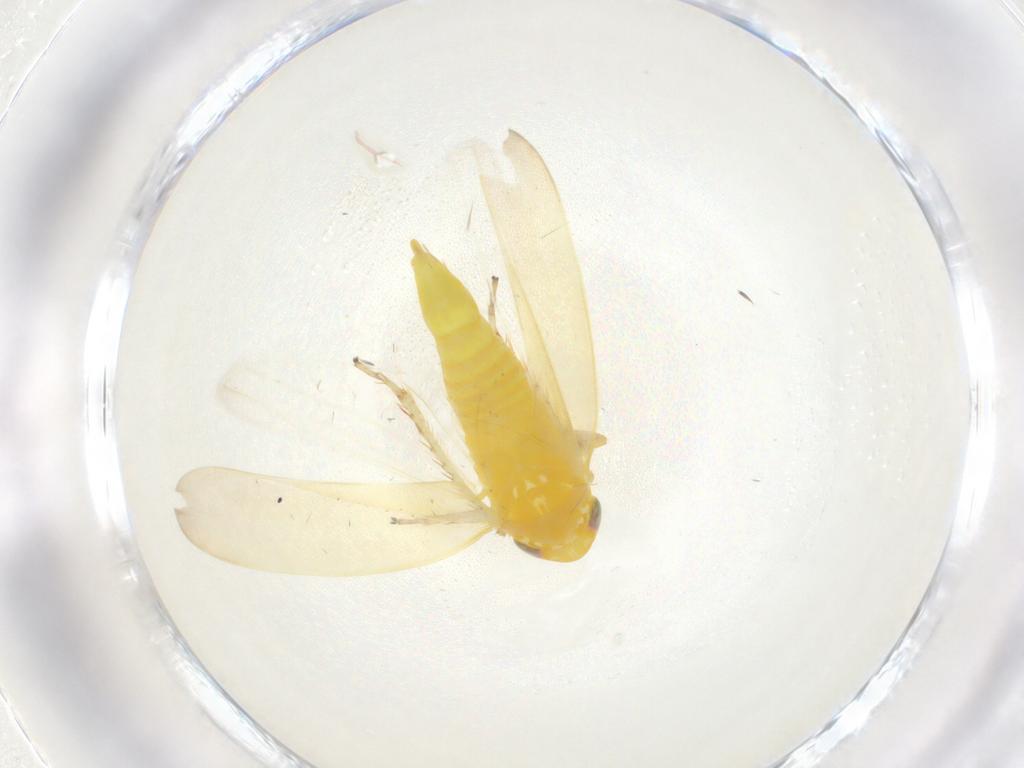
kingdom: Animalia
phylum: Arthropoda
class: Insecta
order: Hemiptera
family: Cicadellidae
